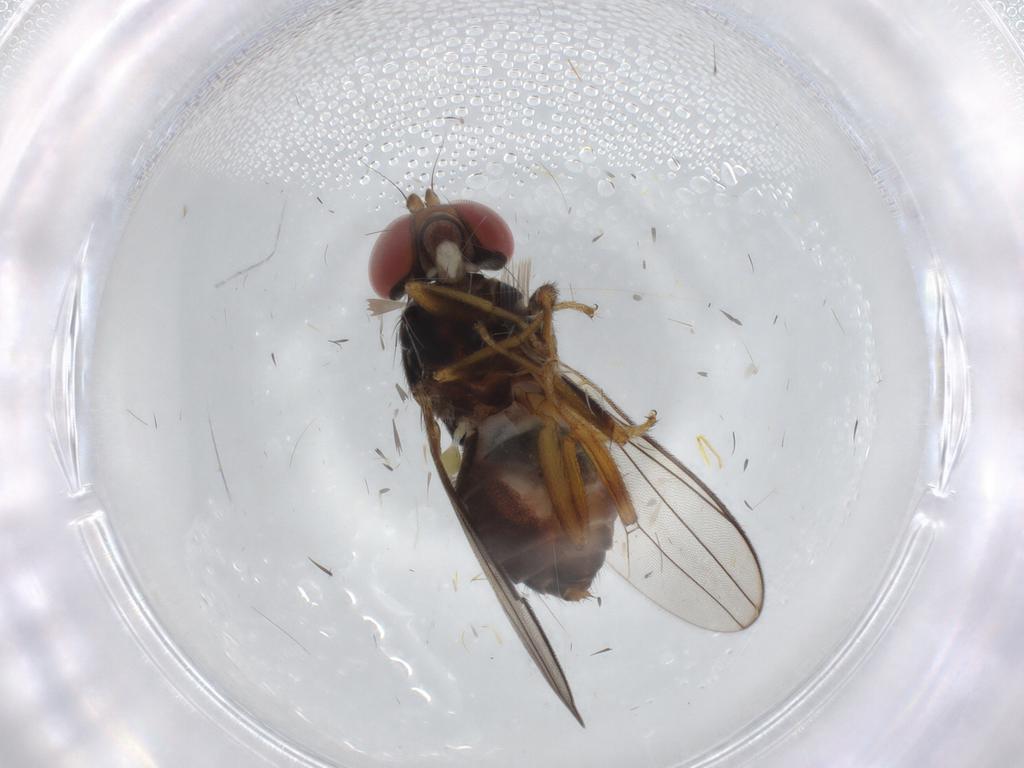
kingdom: Animalia
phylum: Arthropoda
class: Insecta
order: Diptera
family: Aulacigastridae
